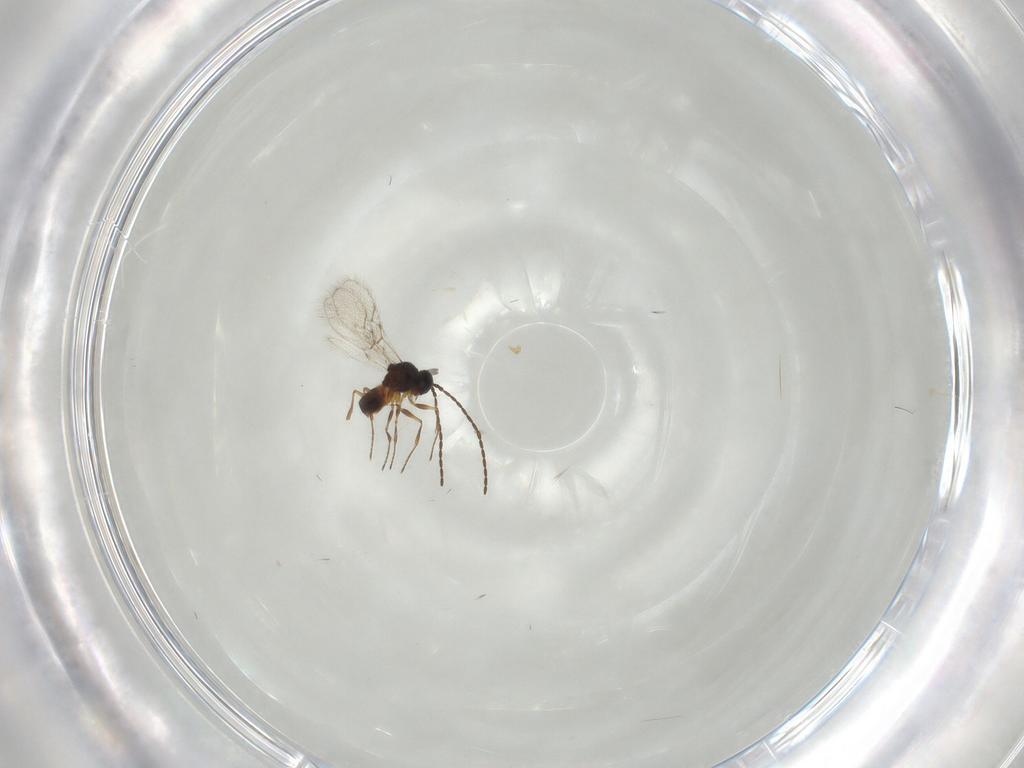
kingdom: Animalia
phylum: Arthropoda
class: Insecta
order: Hymenoptera
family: Figitidae
